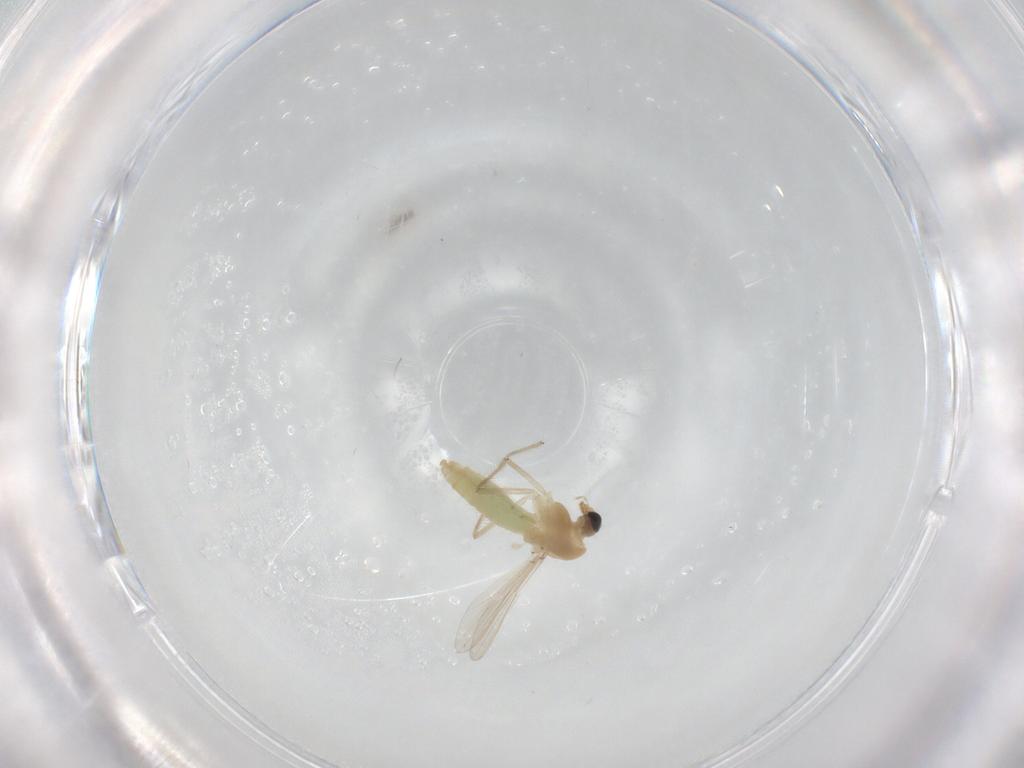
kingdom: Animalia
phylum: Arthropoda
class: Insecta
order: Diptera
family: Chironomidae
